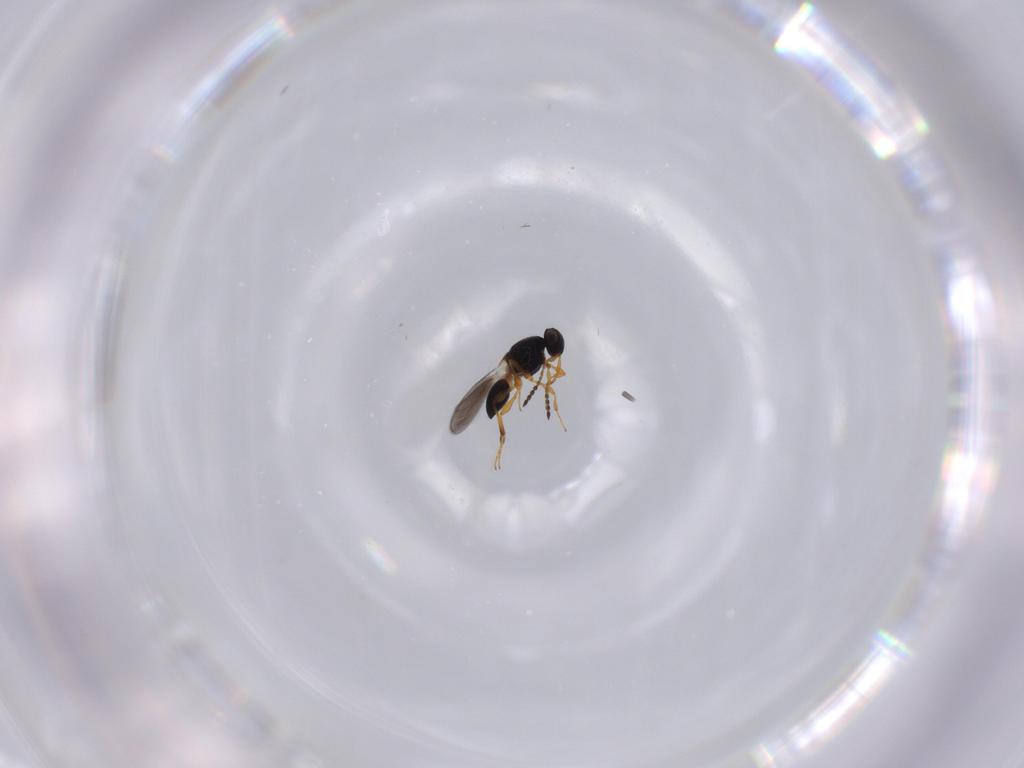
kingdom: Animalia
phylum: Arthropoda
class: Insecta
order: Hymenoptera
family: Platygastridae
